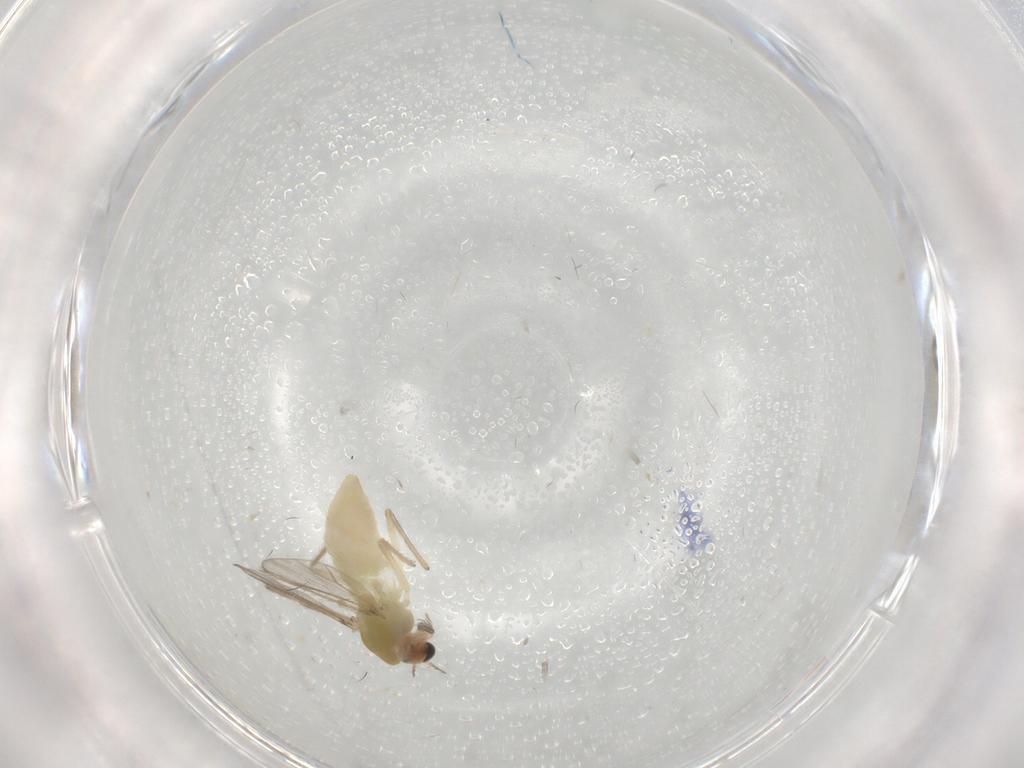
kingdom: Animalia
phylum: Arthropoda
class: Insecta
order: Diptera
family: Chironomidae
